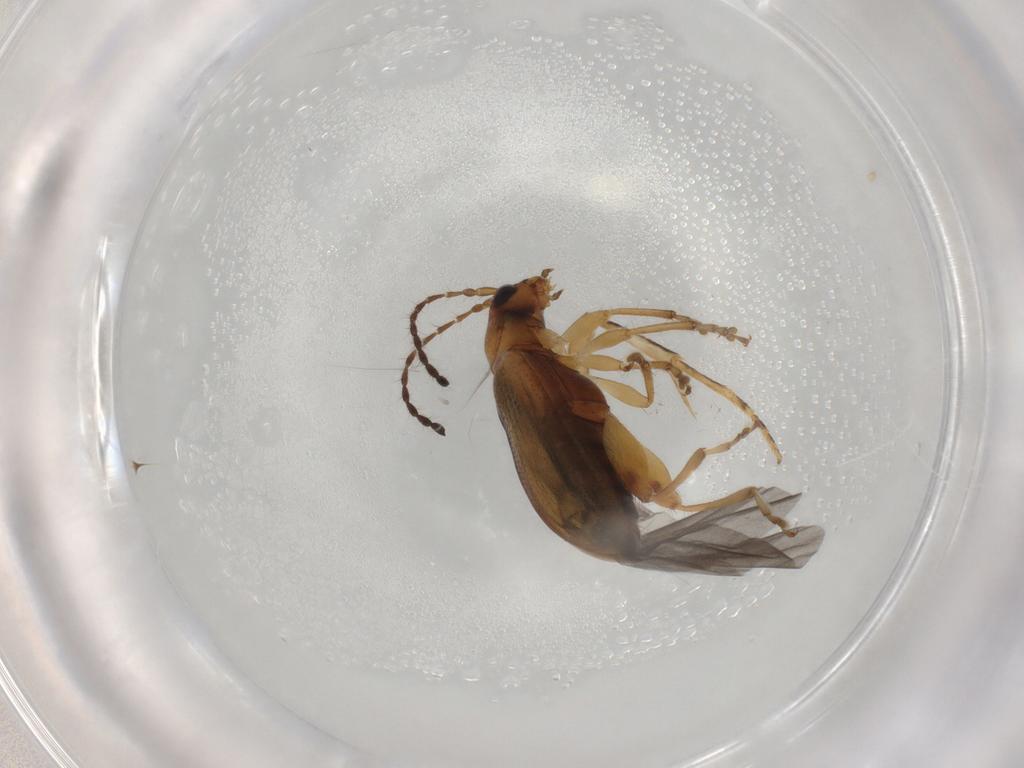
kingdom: Animalia
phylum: Arthropoda
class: Insecta
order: Coleoptera
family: Chrysomelidae
